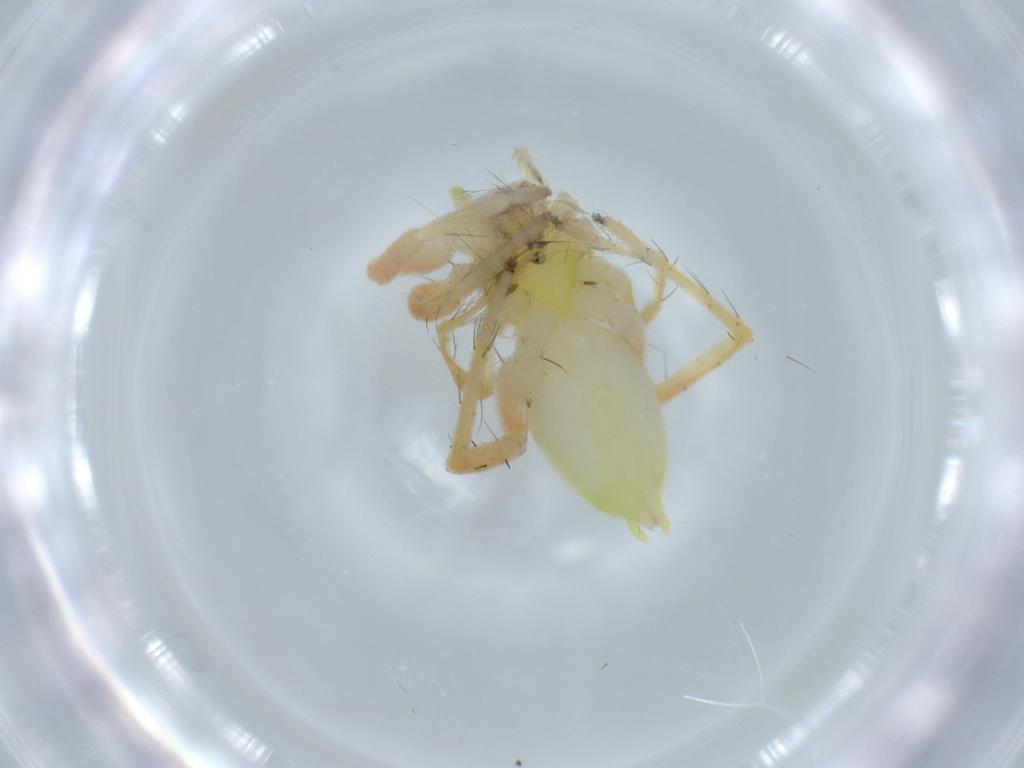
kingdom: Animalia
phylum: Arthropoda
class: Arachnida
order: Araneae
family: Anyphaenidae
